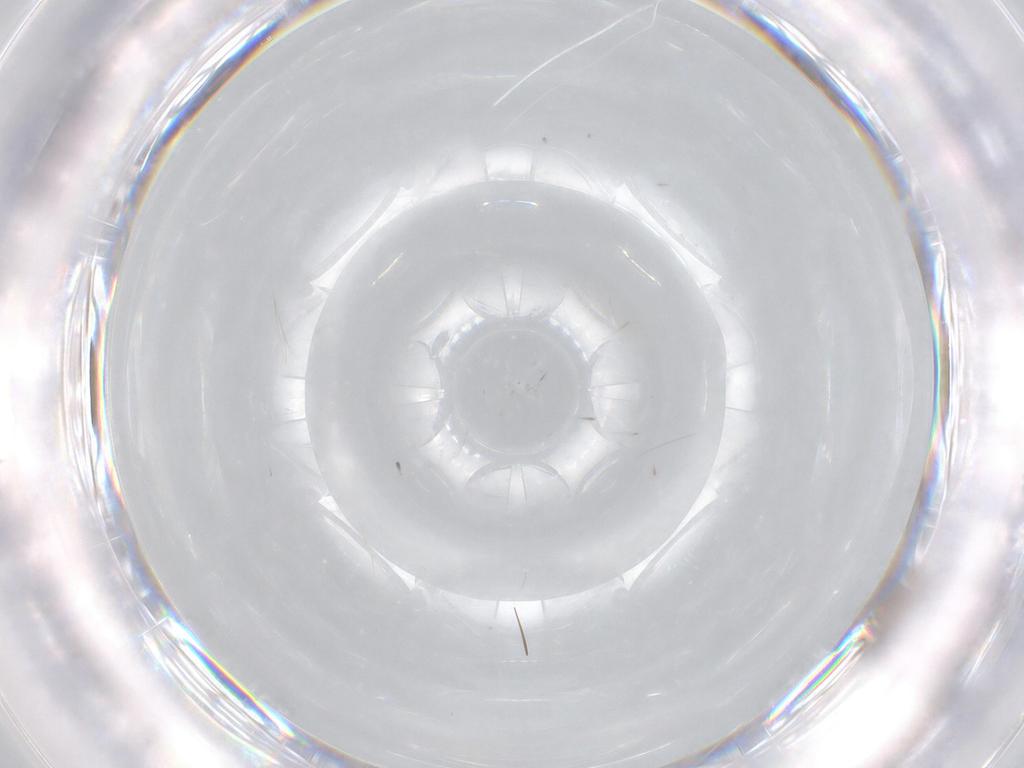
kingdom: Animalia
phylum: Arthropoda
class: Insecta
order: Diptera
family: Cecidomyiidae
